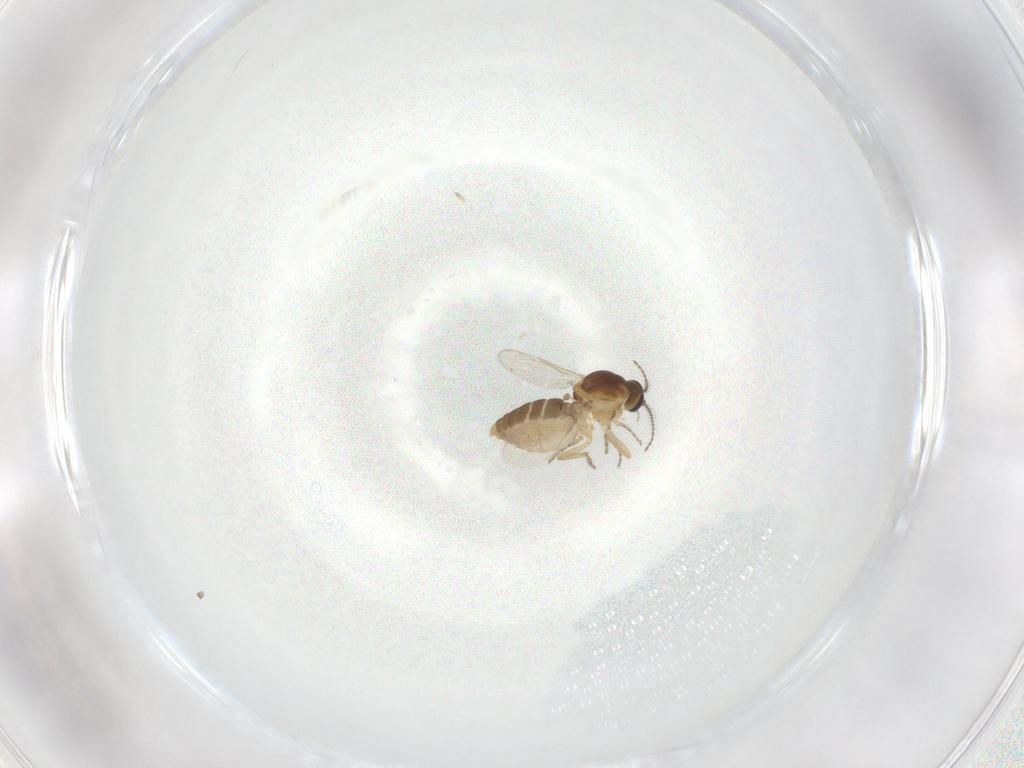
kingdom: Animalia
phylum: Arthropoda
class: Insecta
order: Diptera
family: Ceratopogonidae
